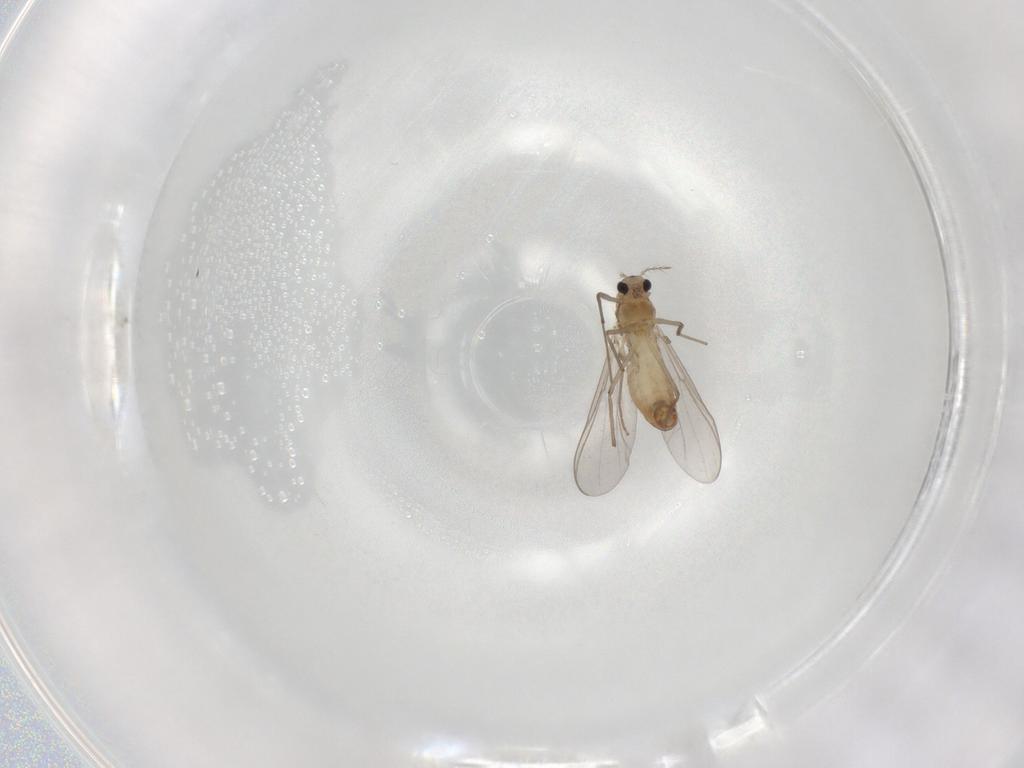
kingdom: Animalia
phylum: Arthropoda
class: Insecta
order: Diptera
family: Chironomidae
